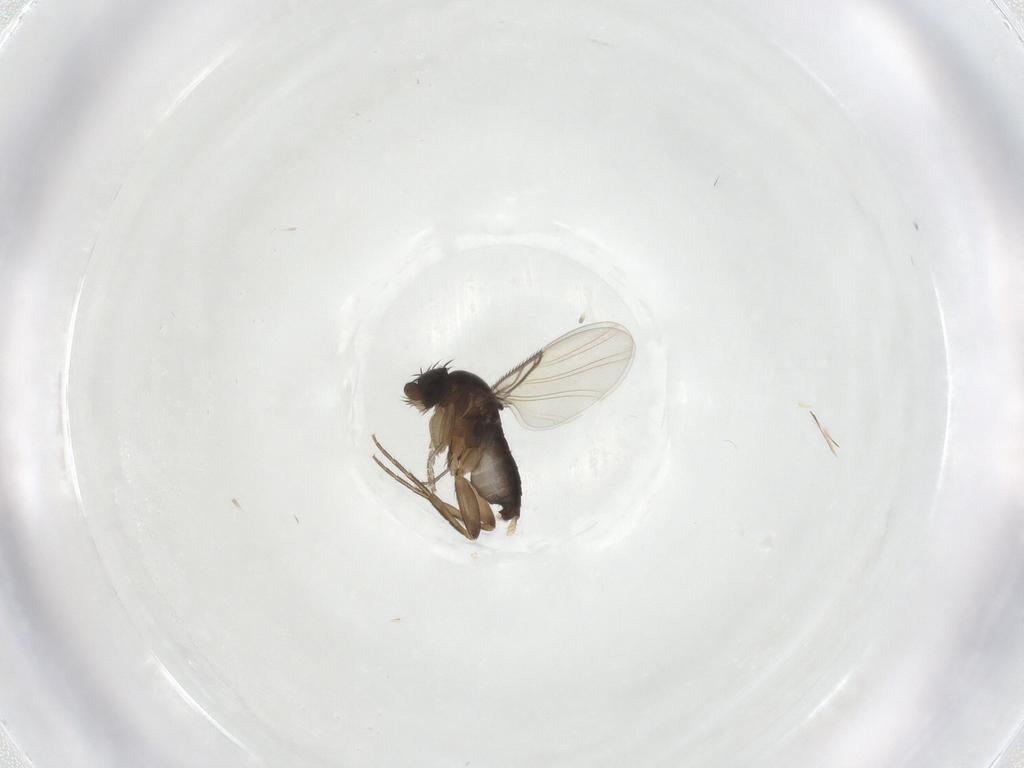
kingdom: Animalia
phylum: Arthropoda
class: Insecta
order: Diptera
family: Phoridae
